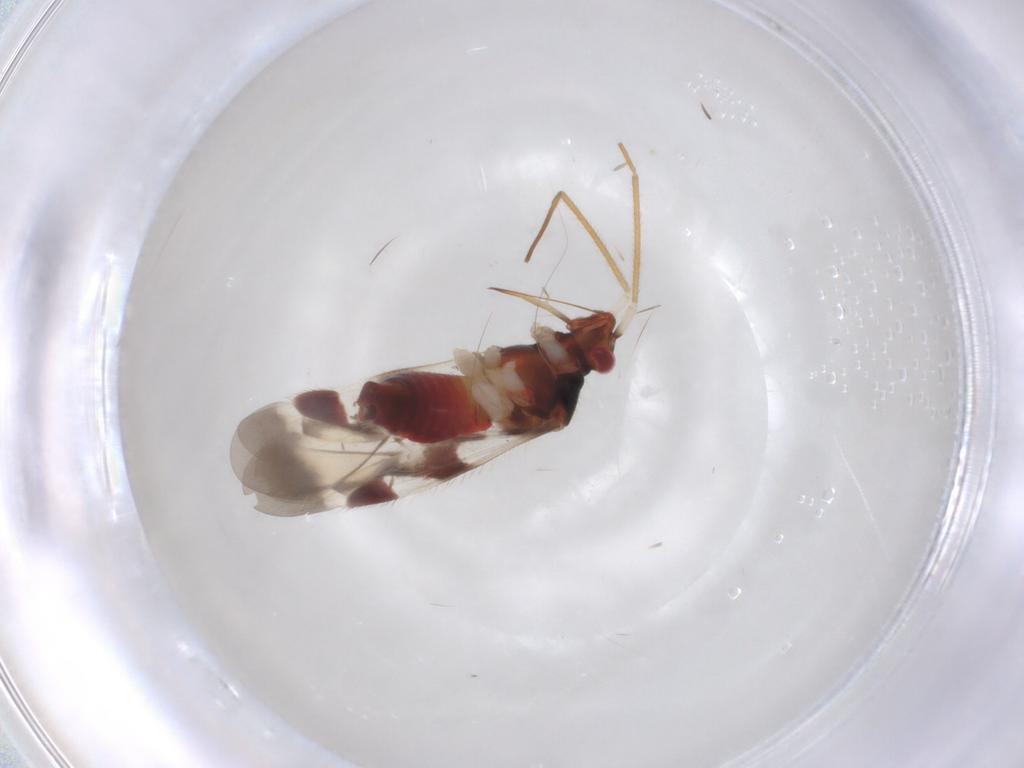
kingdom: Animalia
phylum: Arthropoda
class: Insecta
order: Hemiptera
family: Miridae
